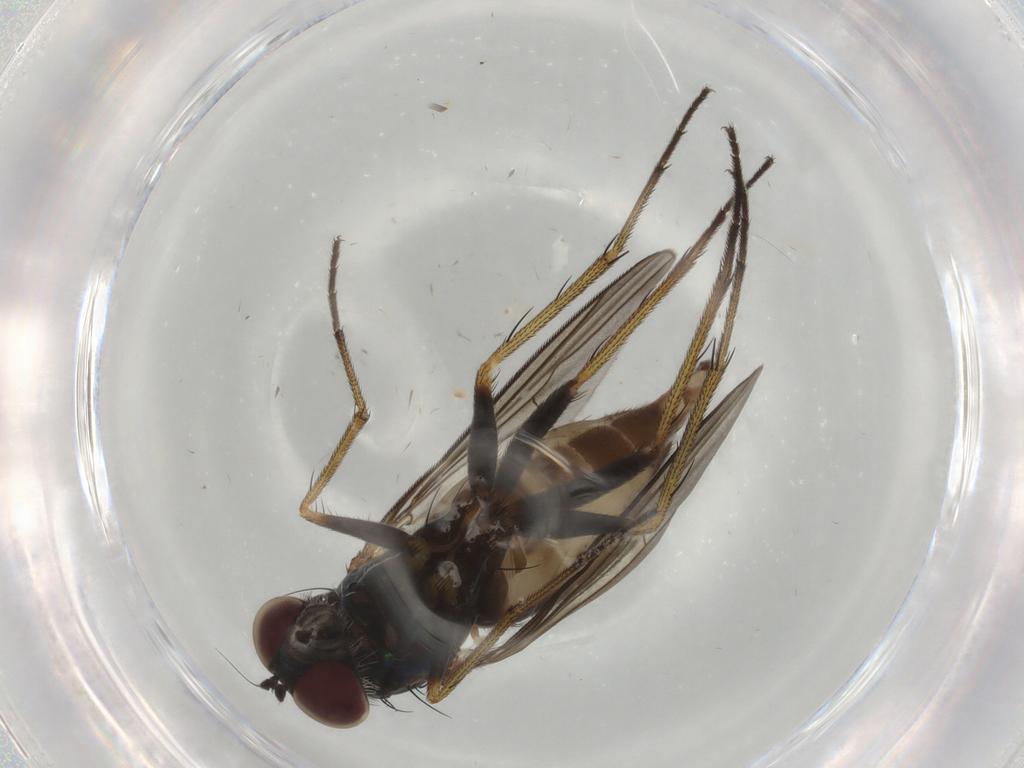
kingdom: Animalia
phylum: Arthropoda
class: Insecta
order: Diptera
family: Dolichopodidae
